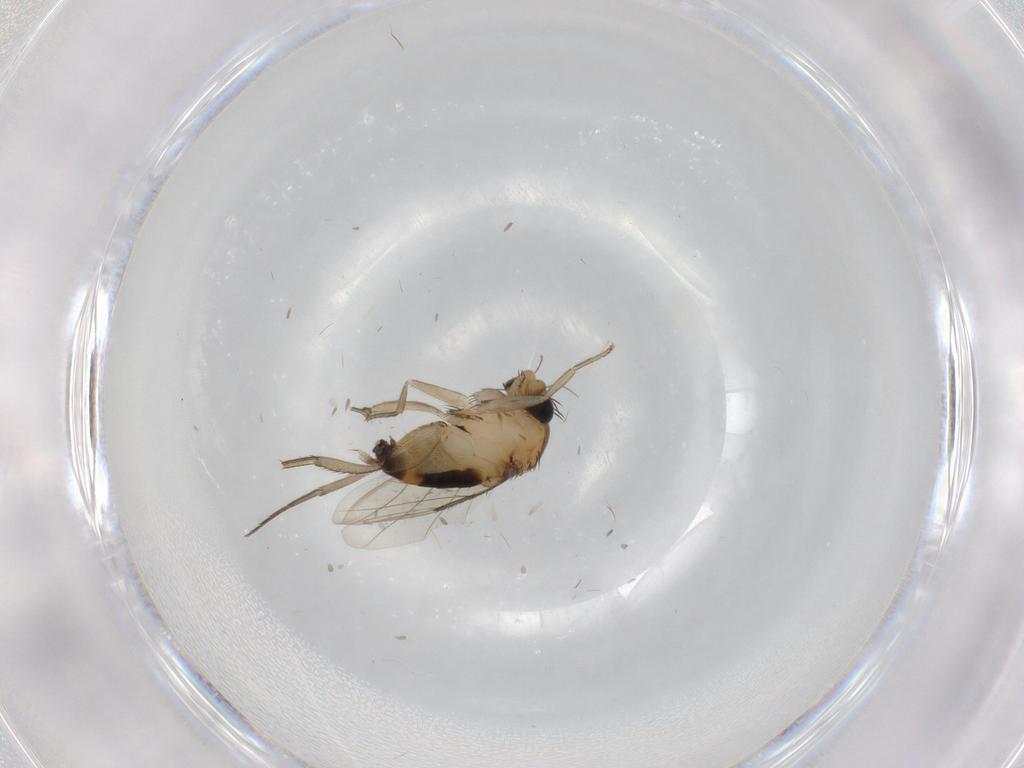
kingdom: Animalia
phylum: Arthropoda
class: Insecta
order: Diptera
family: Phoridae
